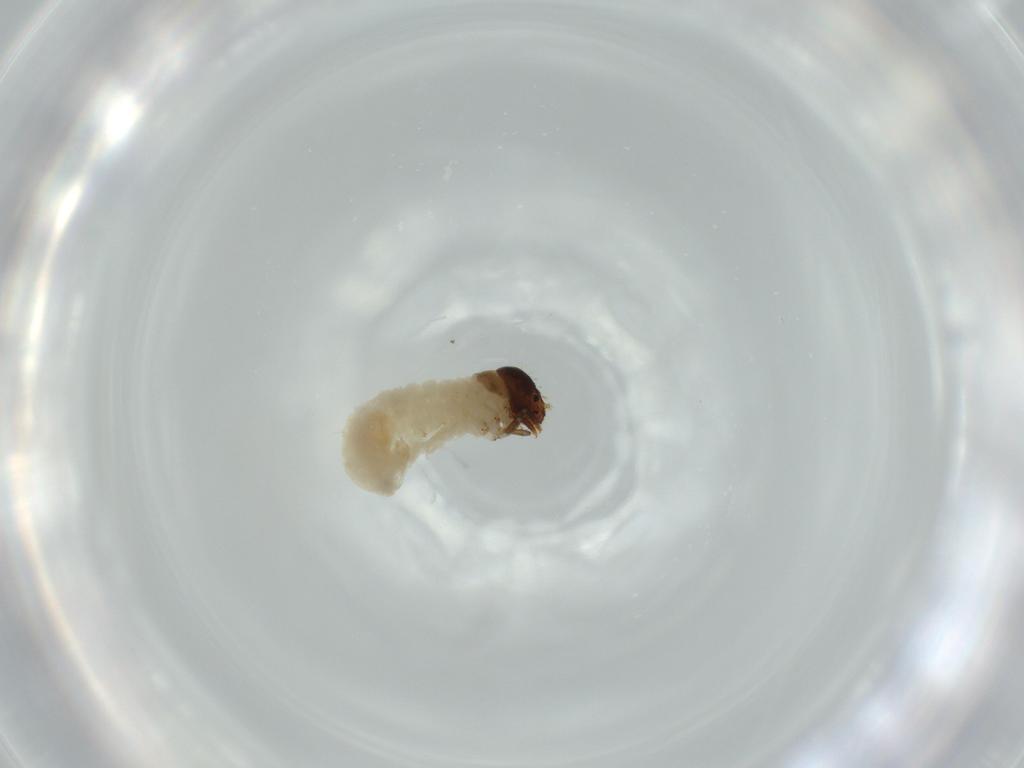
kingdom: Animalia
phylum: Arthropoda
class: Insecta
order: Coleoptera
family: Chrysomelidae
